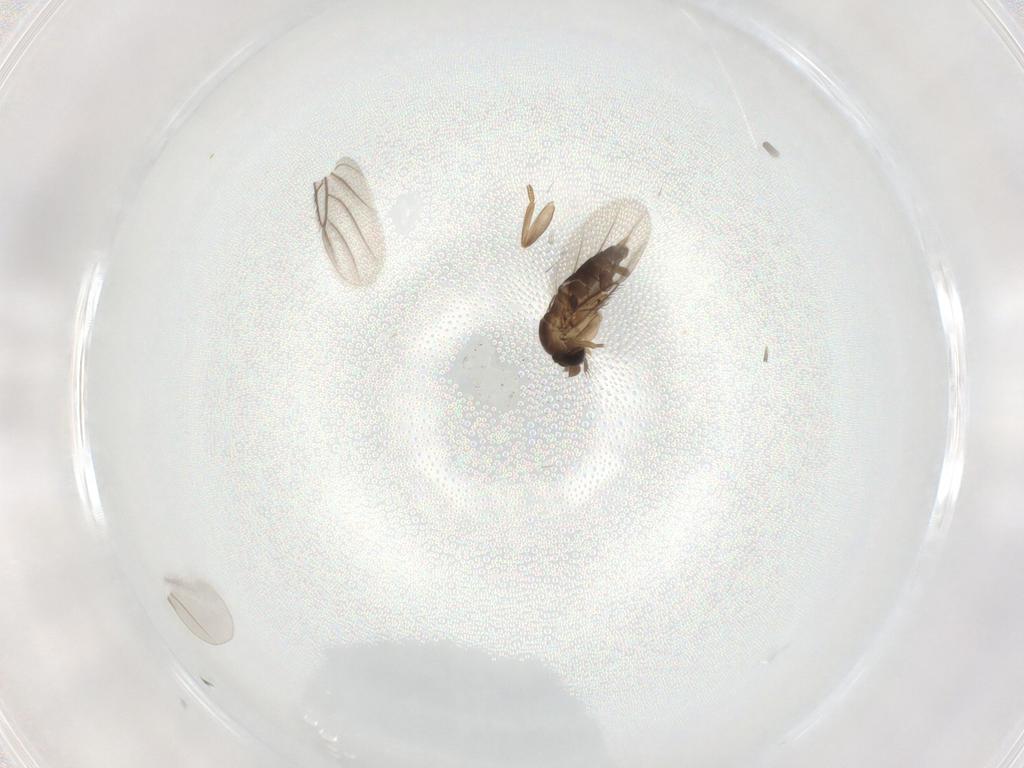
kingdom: Animalia
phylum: Arthropoda
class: Insecta
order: Diptera
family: Phoridae
